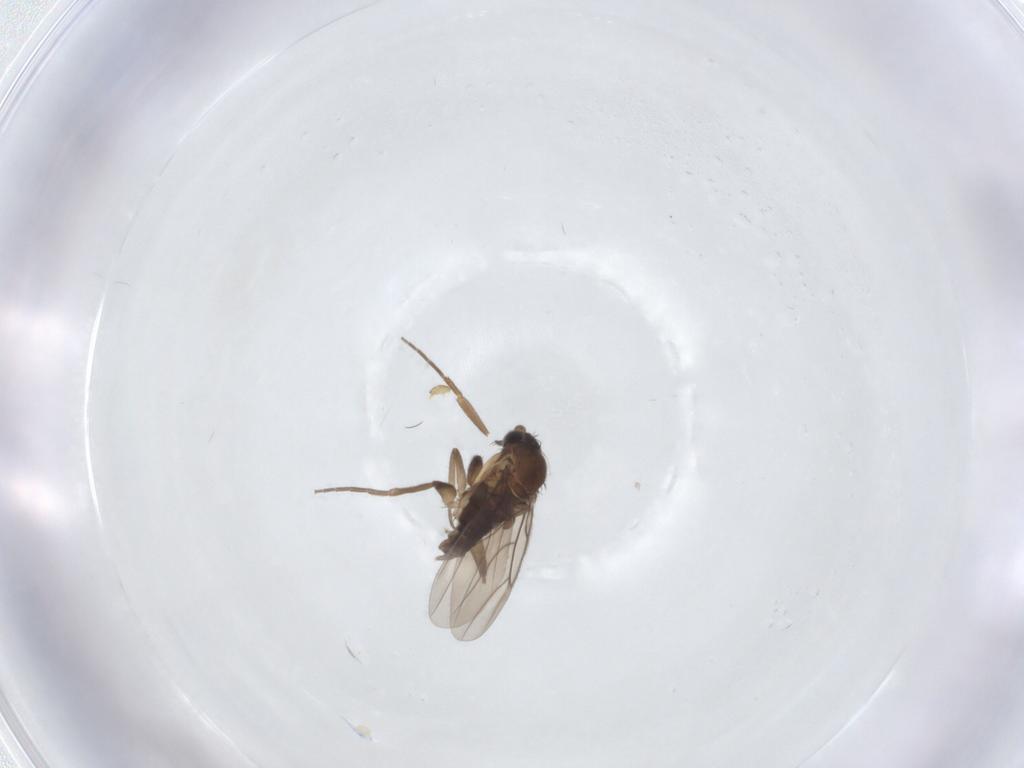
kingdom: Animalia
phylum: Arthropoda
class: Insecta
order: Diptera
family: Phoridae
